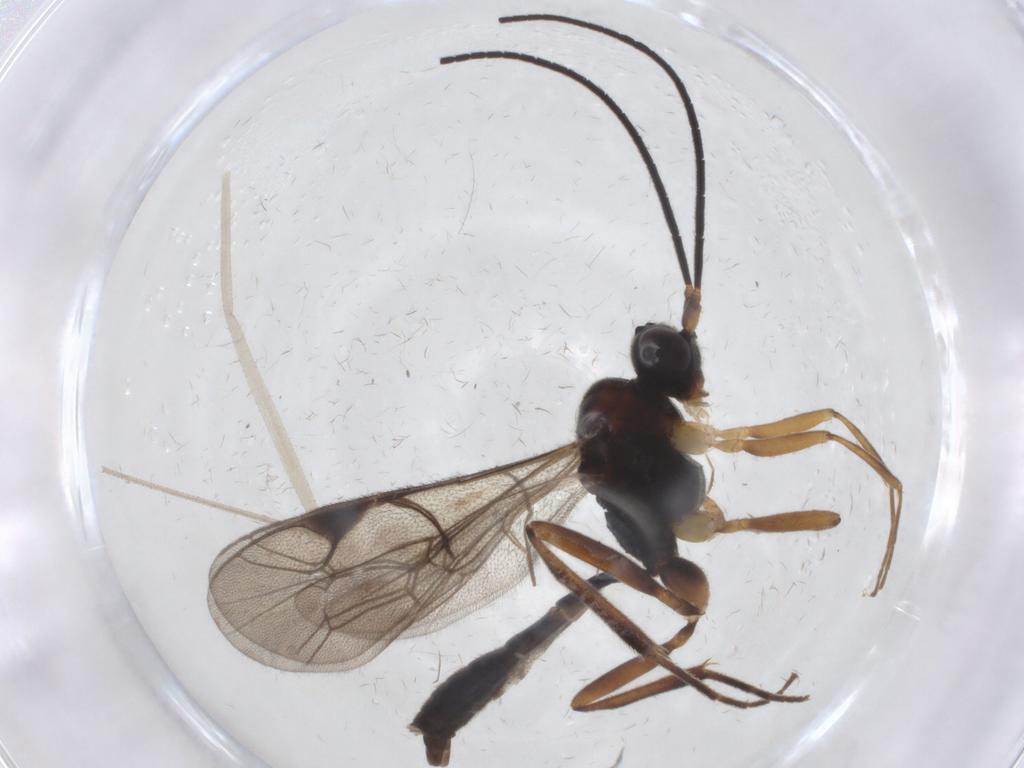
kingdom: Animalia
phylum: Arthropoda
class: Insecta
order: Hymenoptera
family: Ichneumonidae
